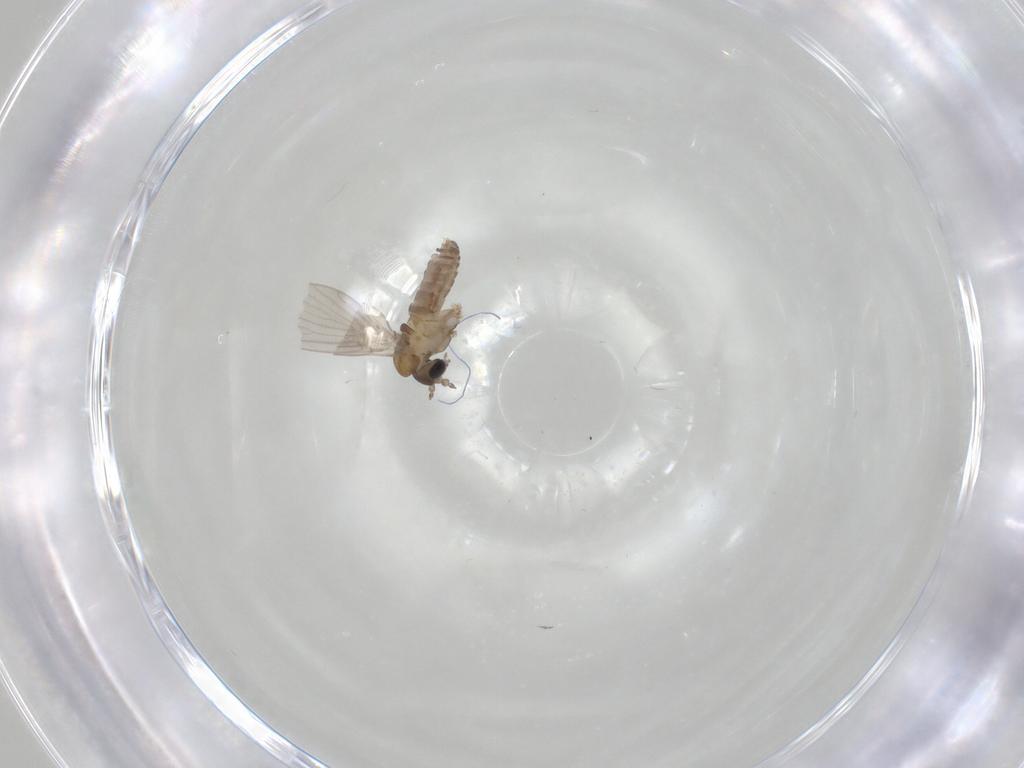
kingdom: Animalia
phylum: Arthropoda
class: Insecta
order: Diptera
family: Psychodidae
